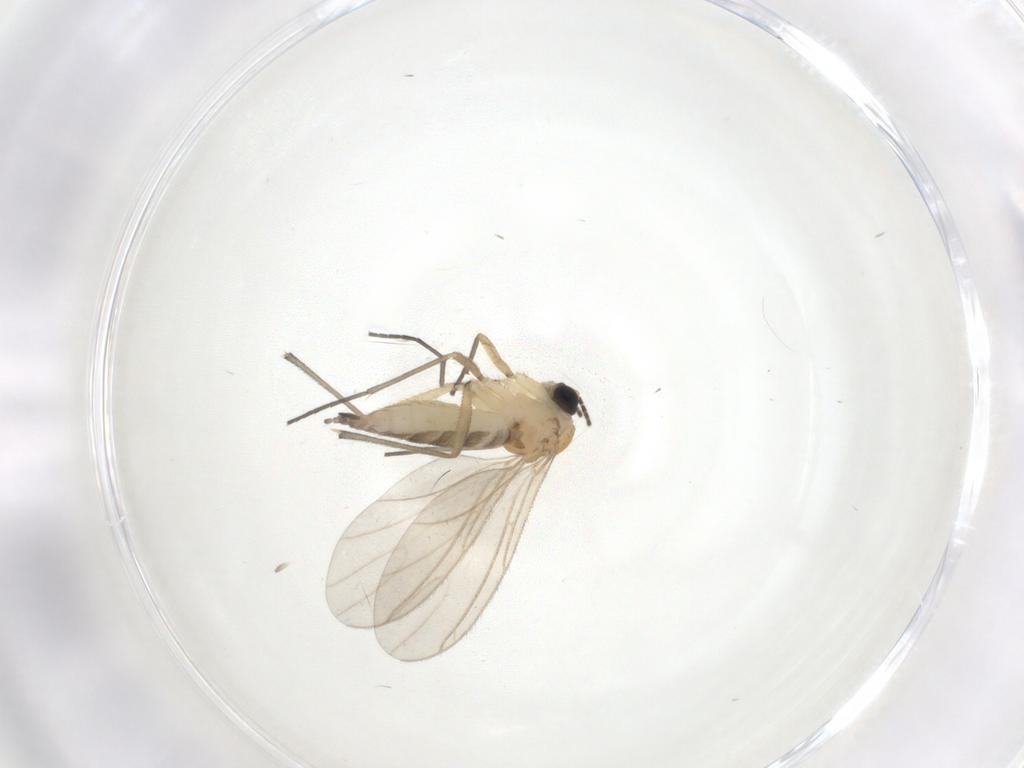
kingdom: Animalia
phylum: Arthropoda
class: Insecta
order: Diptera
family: Sciaridae
